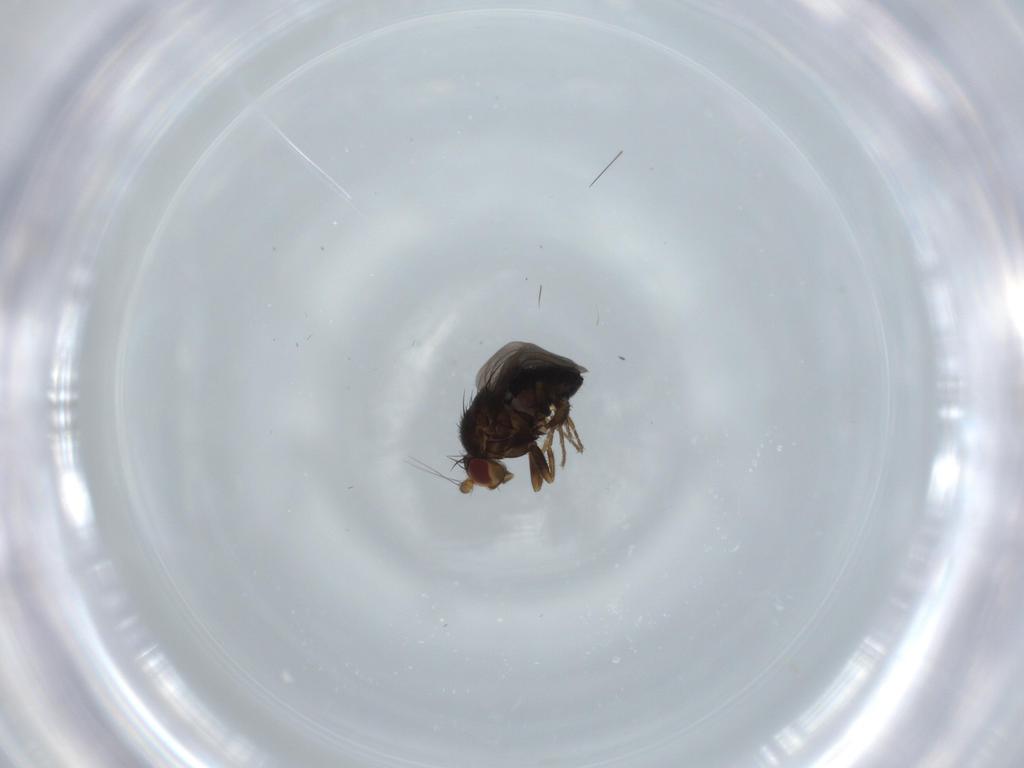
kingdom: Animalia
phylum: Arthropoda
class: Insecta
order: Diptera
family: Sphaeroceridae
